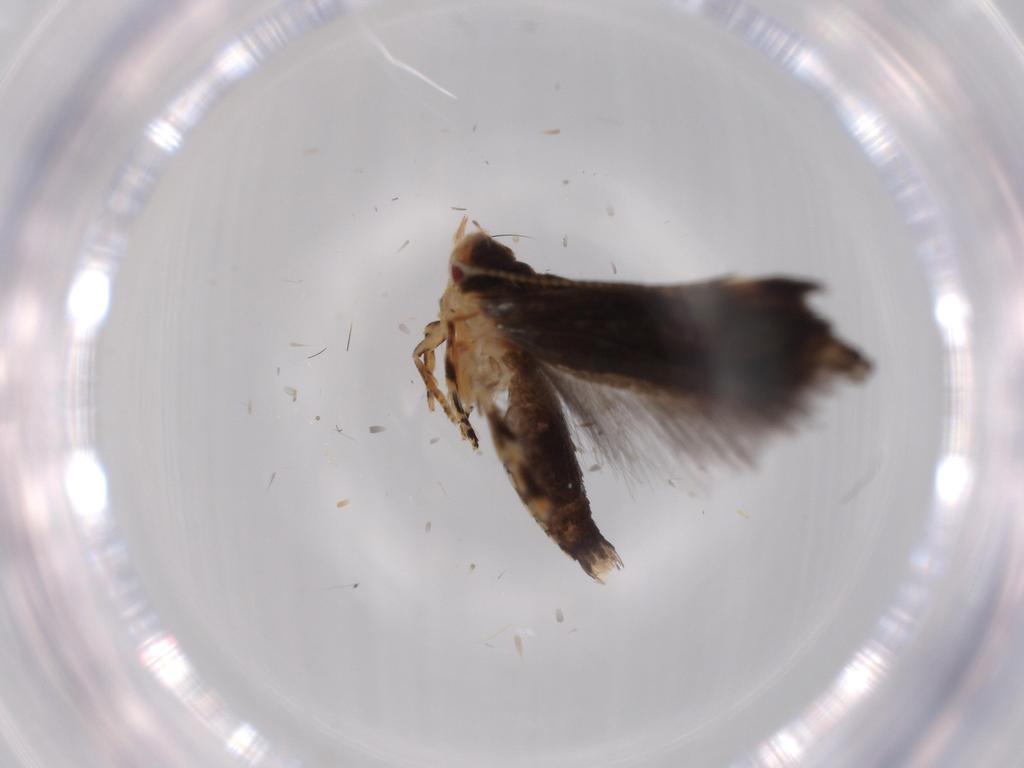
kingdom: Animalia
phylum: Arthropoda
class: Insecta
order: Lepidoptera
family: Momphidae
